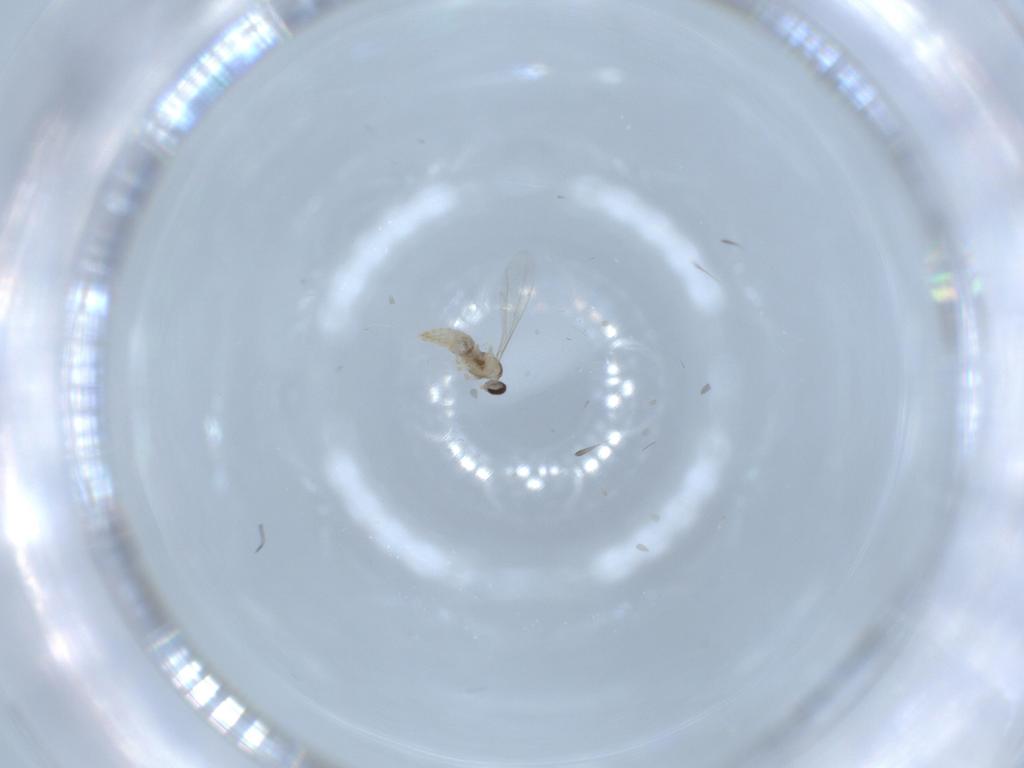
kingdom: Animalia
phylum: Arthropoda
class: Insecta
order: Diptera
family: Cecidomyiidae
